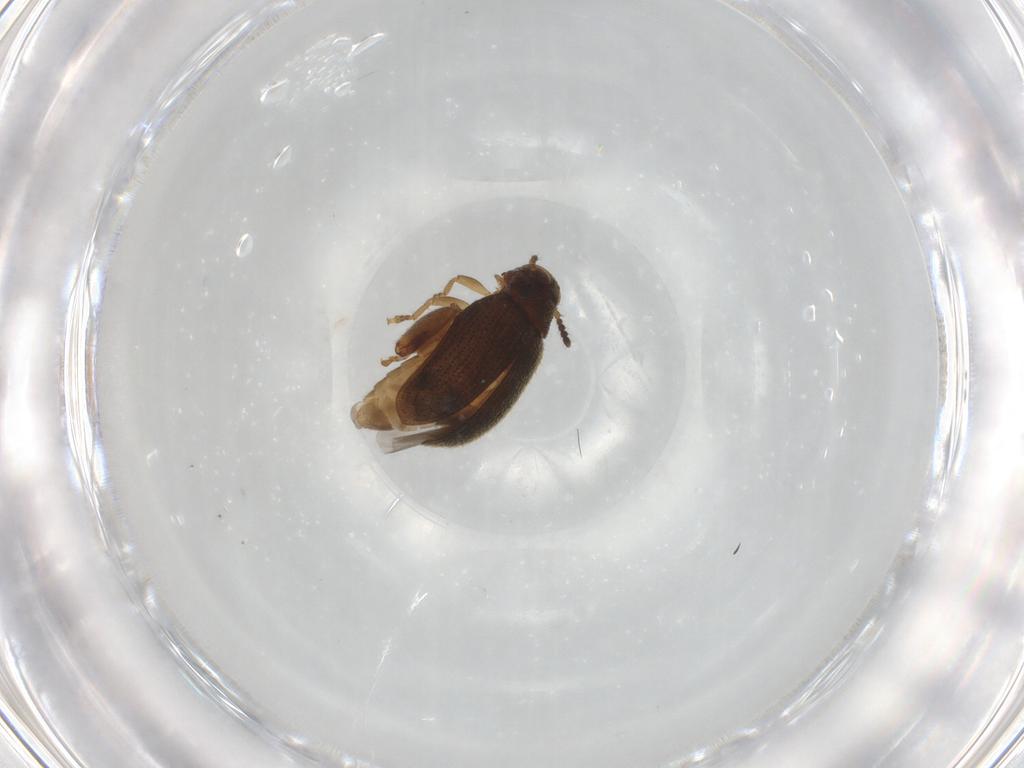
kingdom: Animalia
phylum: Arthropoda
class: Insecta
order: Coleoptera
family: Chrysomelidae
